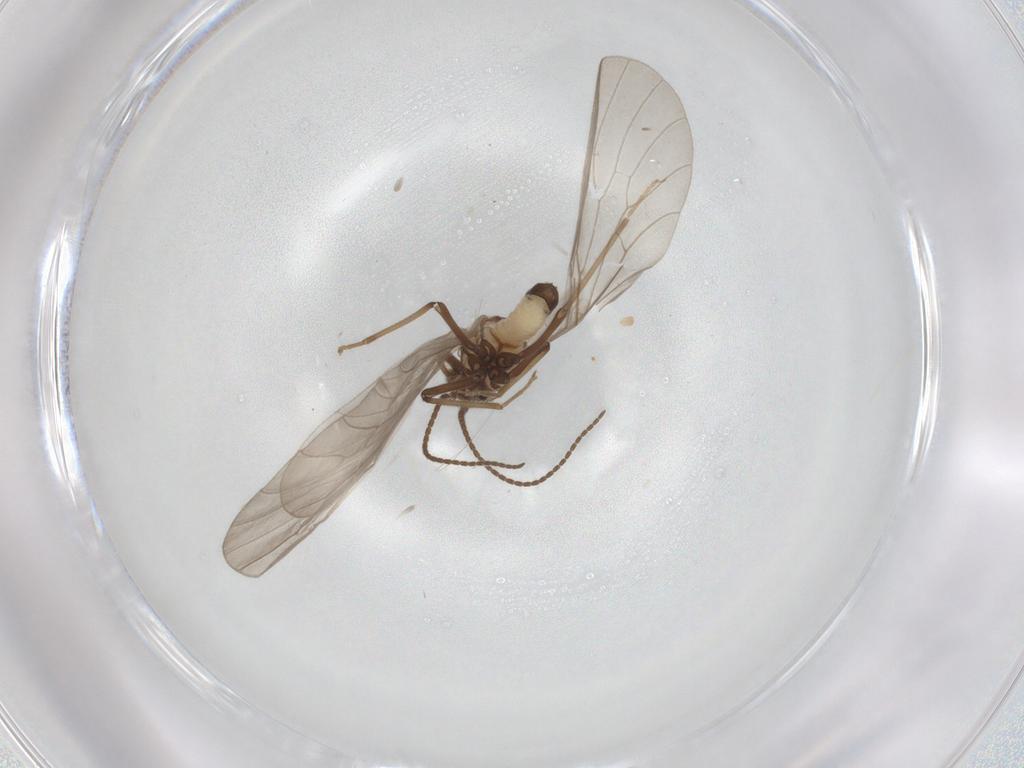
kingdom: Animalia
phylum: Arthropoda
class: Insecta
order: Neuroptera
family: Coniopterygidae
